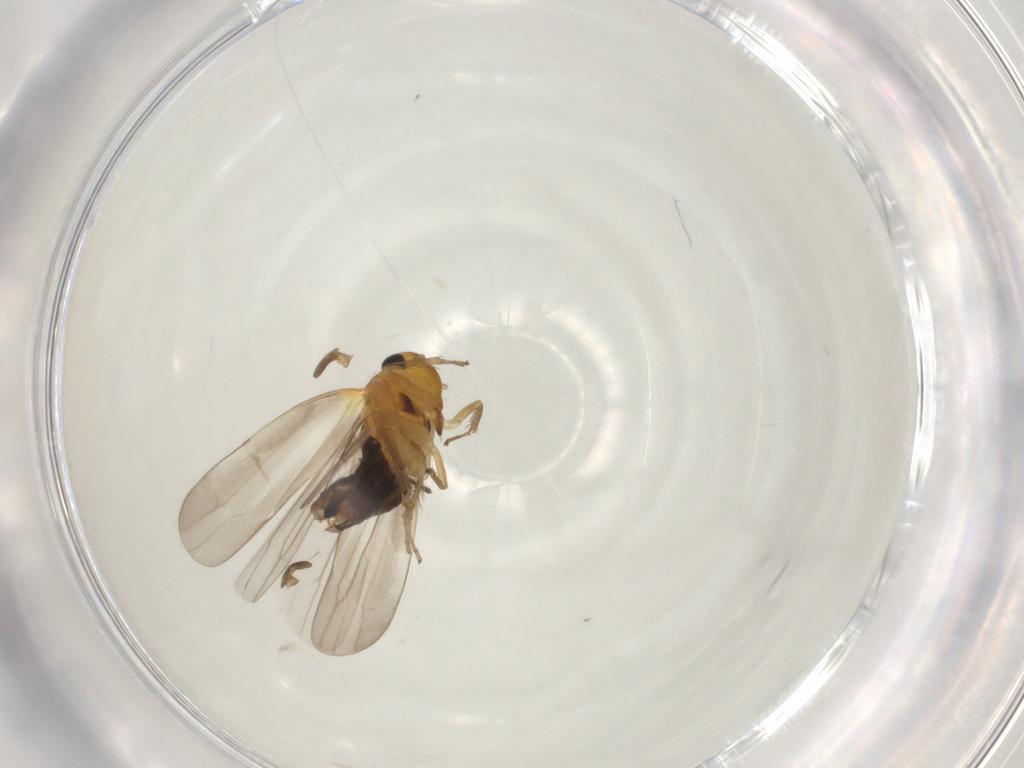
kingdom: Animalia
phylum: Arthropoda
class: Insecta
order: Hemiptera
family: Cicadellidae
